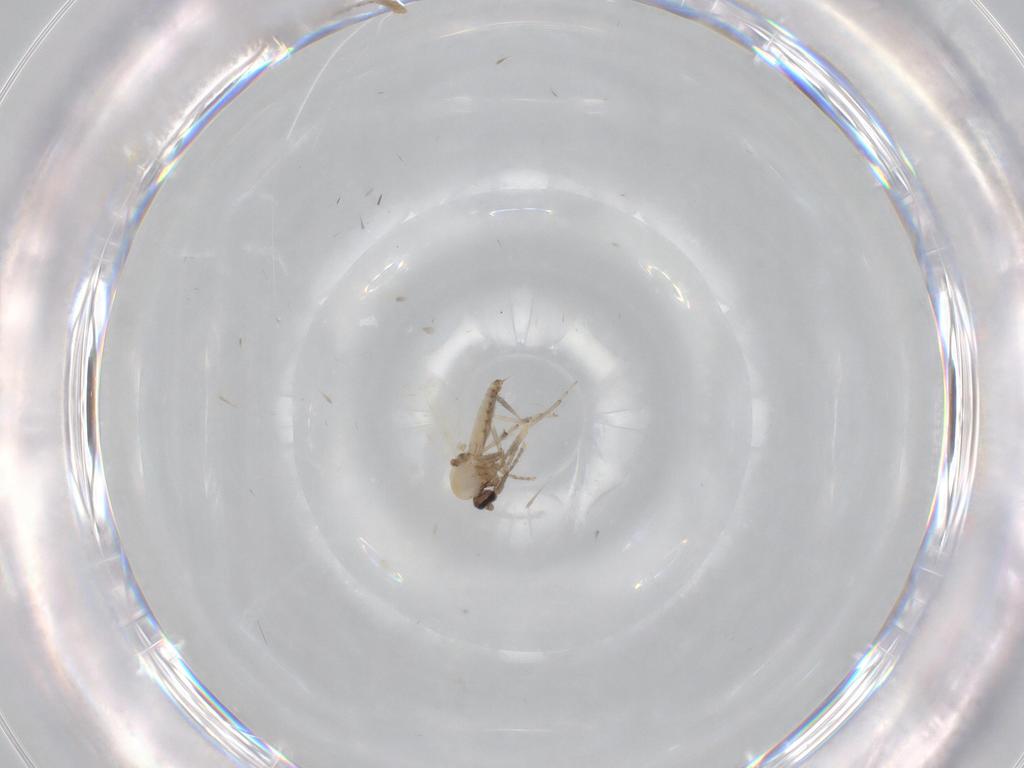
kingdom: Animalia
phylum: Arthropoda
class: Insecta
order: Diptera
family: Ceratopogonidae
